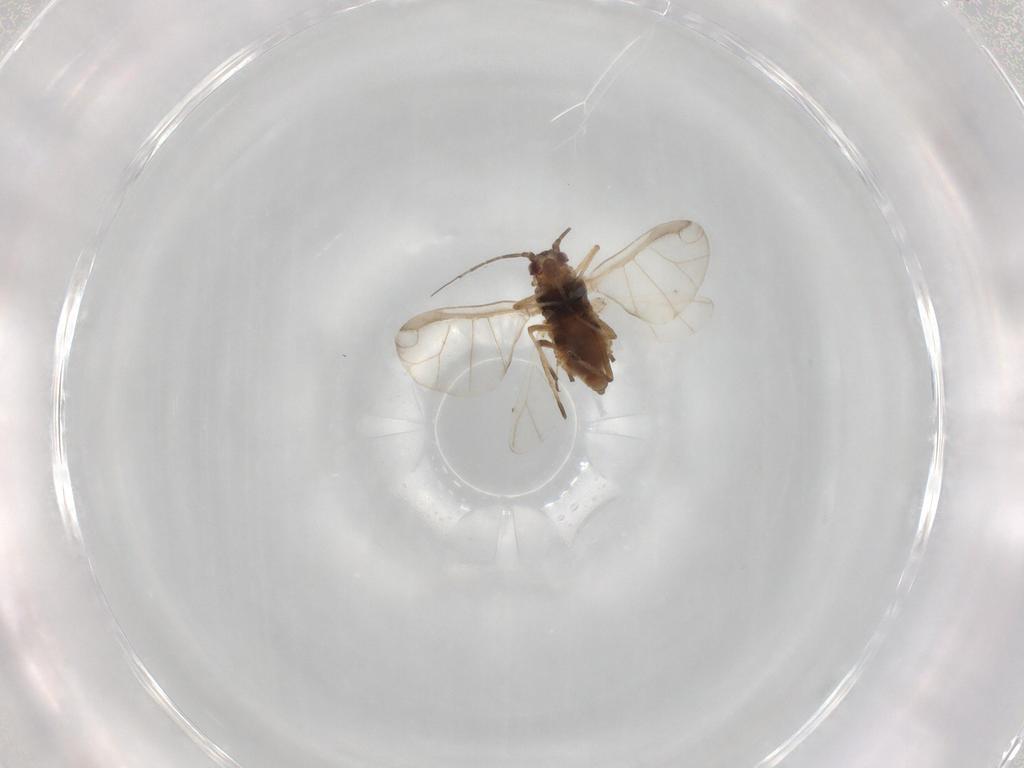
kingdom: Animalia
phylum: Arthropoda
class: Insecta
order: Hemiptera
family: Aphididae
